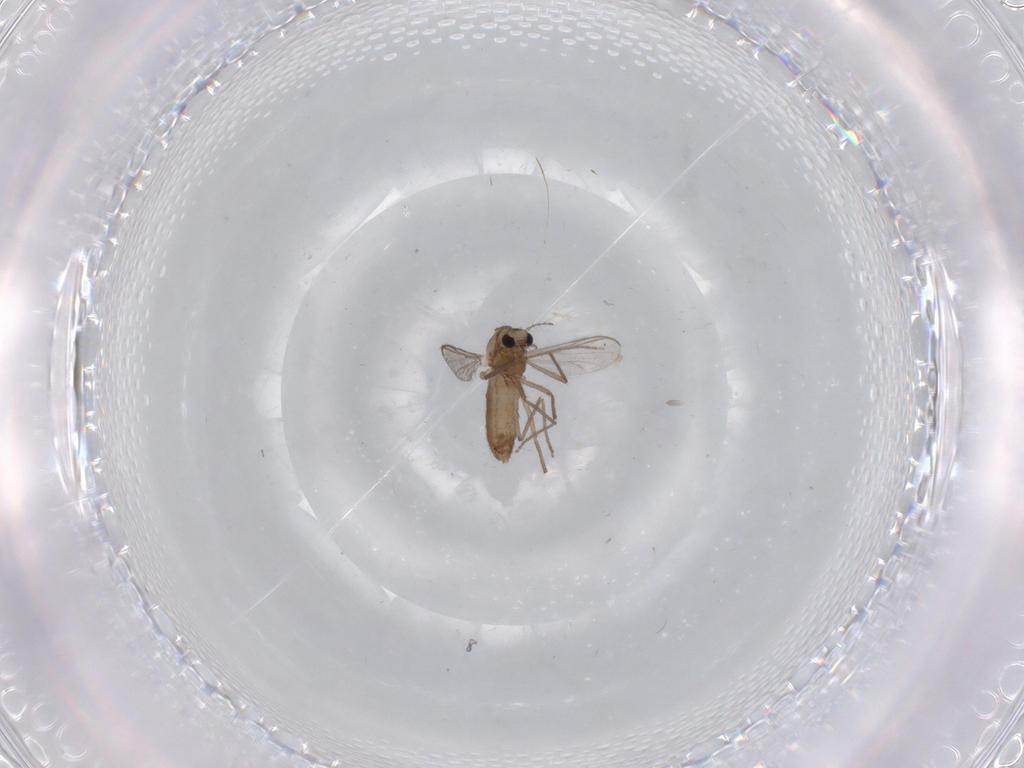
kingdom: Animalia
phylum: Arthropoda
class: Insecta
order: Diptera
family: Chironomidae
